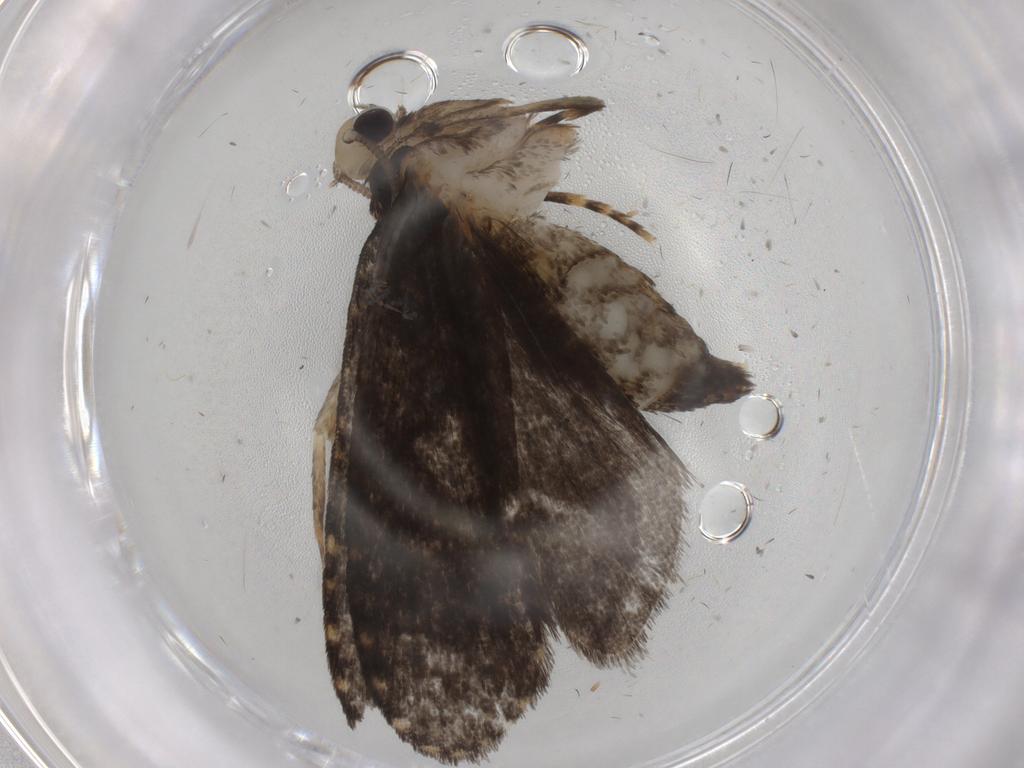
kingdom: Animalia
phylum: Arthropoda
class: Insecta
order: Lepidoptera
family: Tineidae
